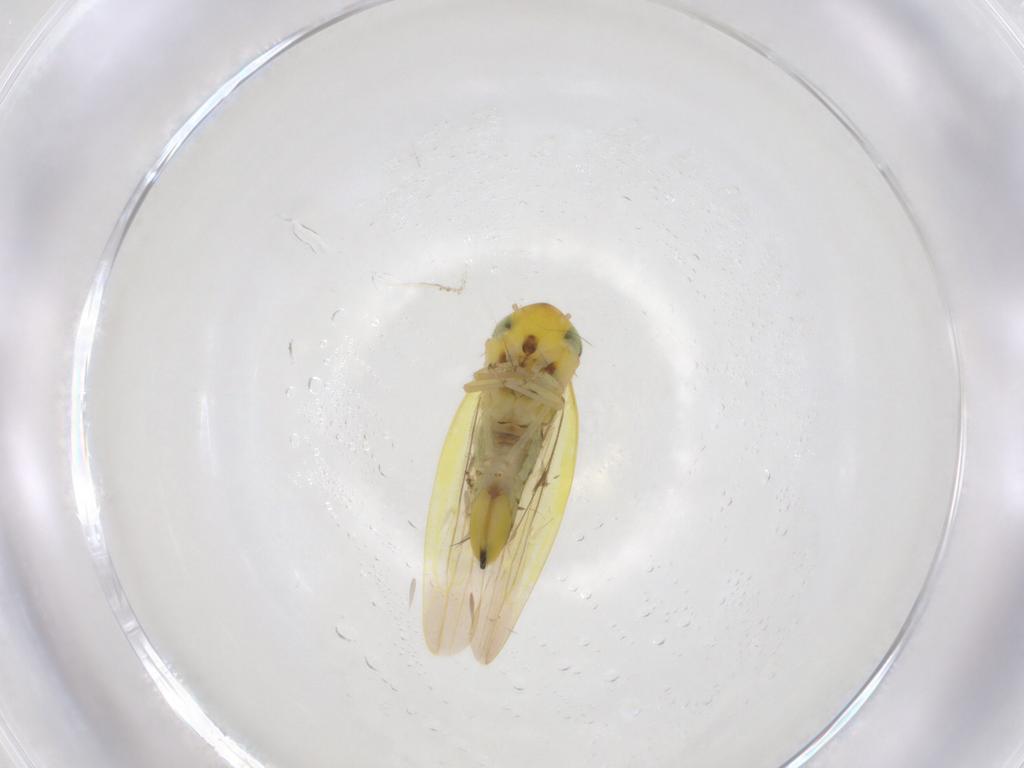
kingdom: Animalia
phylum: Arthropoda
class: Insecta
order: Hemiptera
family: Cicadellidae
